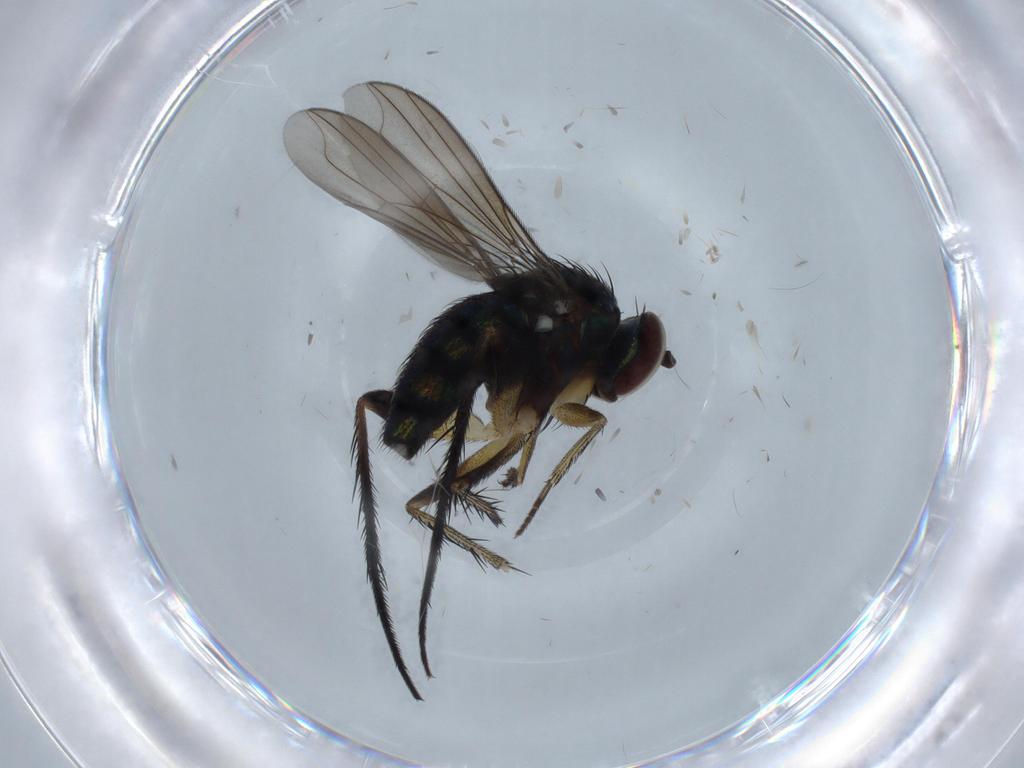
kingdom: Animalia
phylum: Arthropoda
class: Insecta
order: Diptera
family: Dolichopodidae
